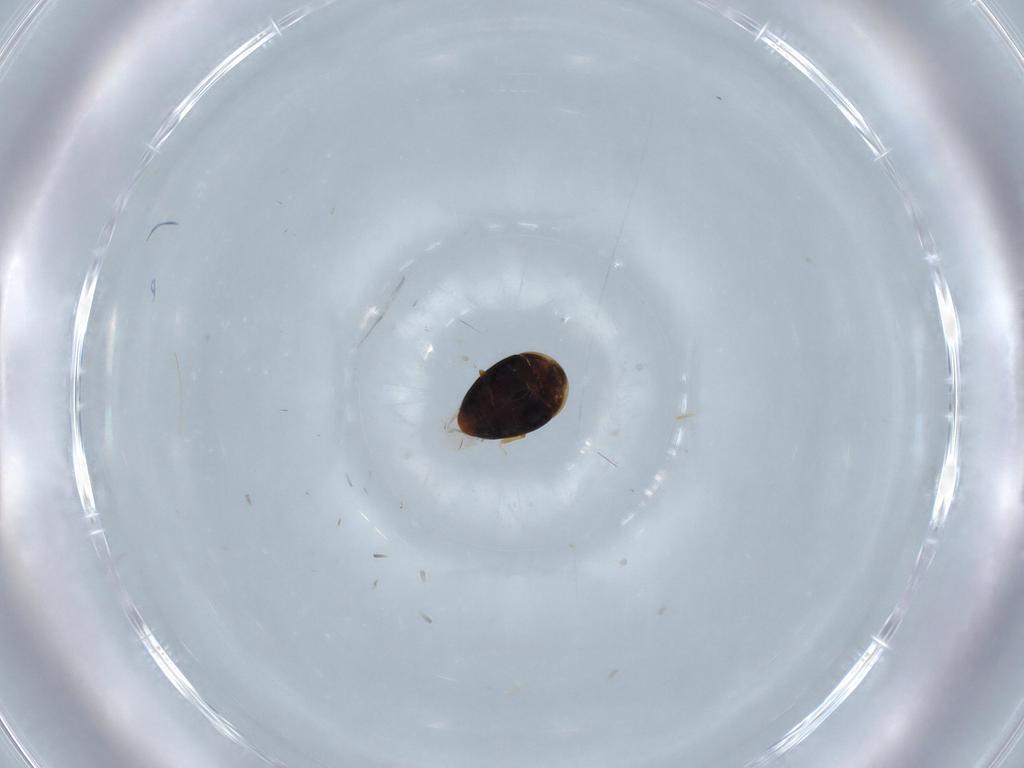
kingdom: Animalia
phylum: Arthropoda
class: Insecta
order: Coleoptera
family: Corylophidae
